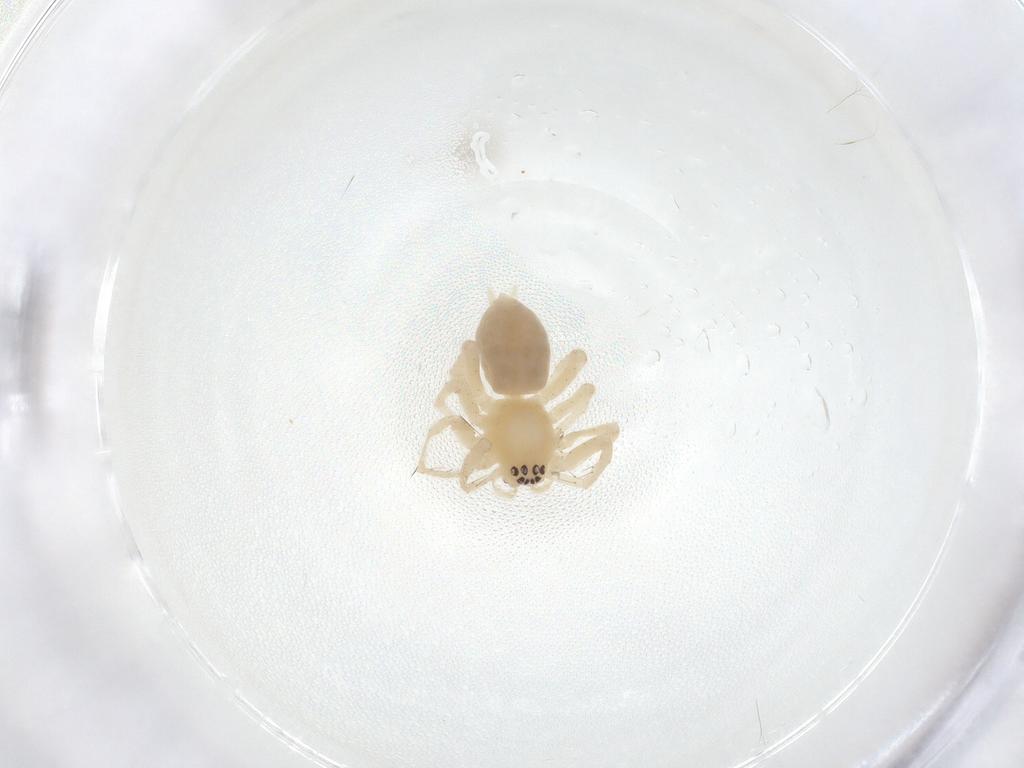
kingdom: Animalia
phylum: Arthropoda
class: Arachnida
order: Araneae
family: Anyphaenidae
